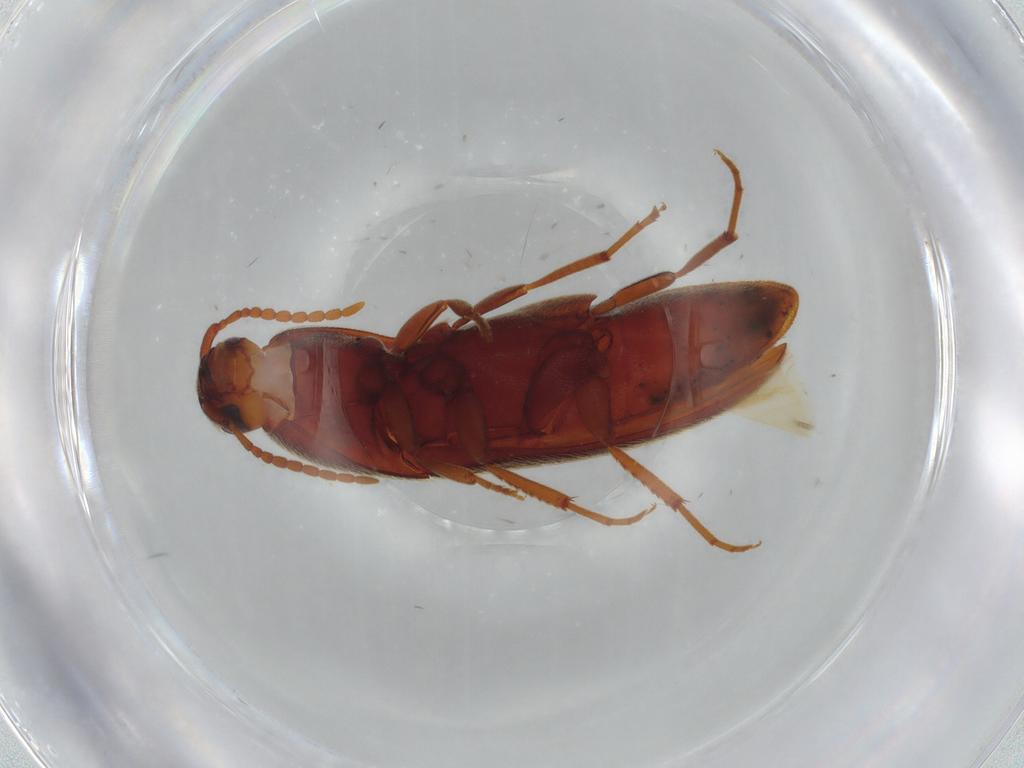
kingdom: Animalia
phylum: Arthropoda
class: Insecta
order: Coleoptera
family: Eucnemidae
